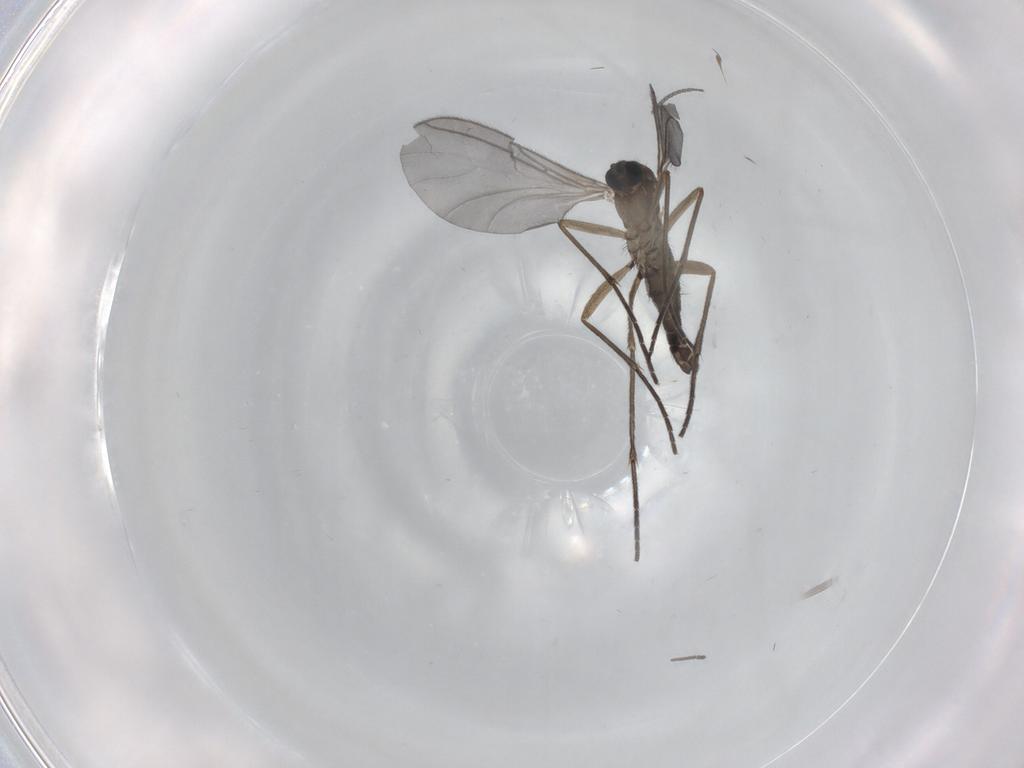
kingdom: Animalia
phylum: Arthropoda
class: Insecta
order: Diptera
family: Sciaridae
